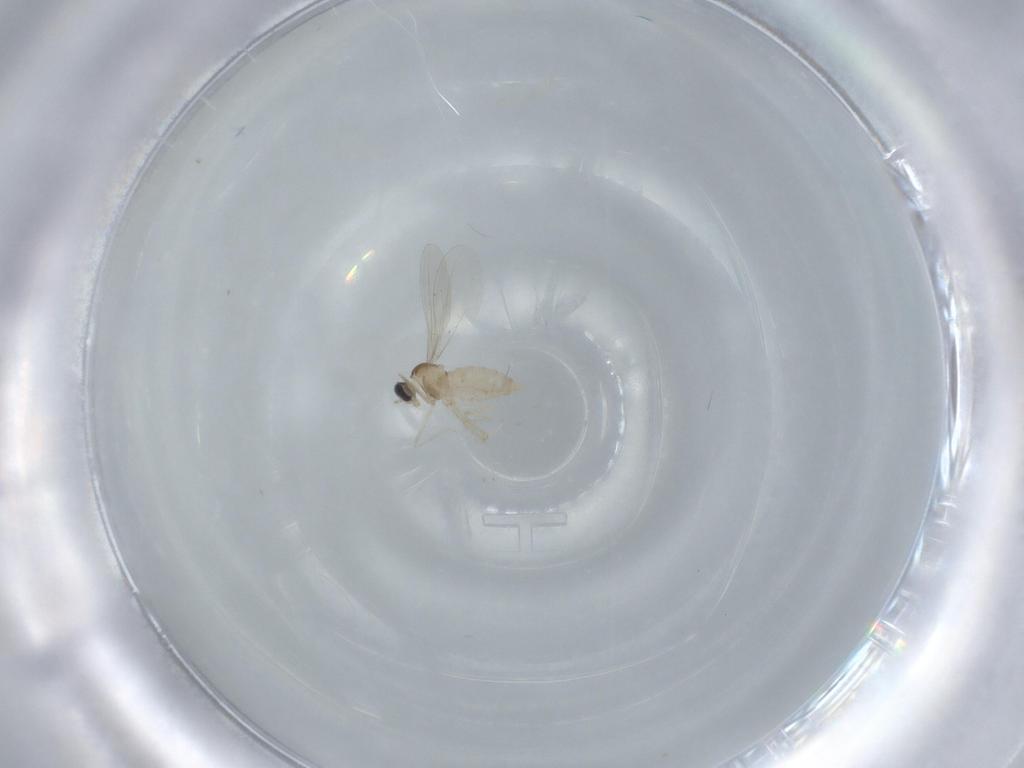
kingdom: Animalia
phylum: Arthropoda
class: Insecta
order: Diptera
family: Cecidomyiidae
